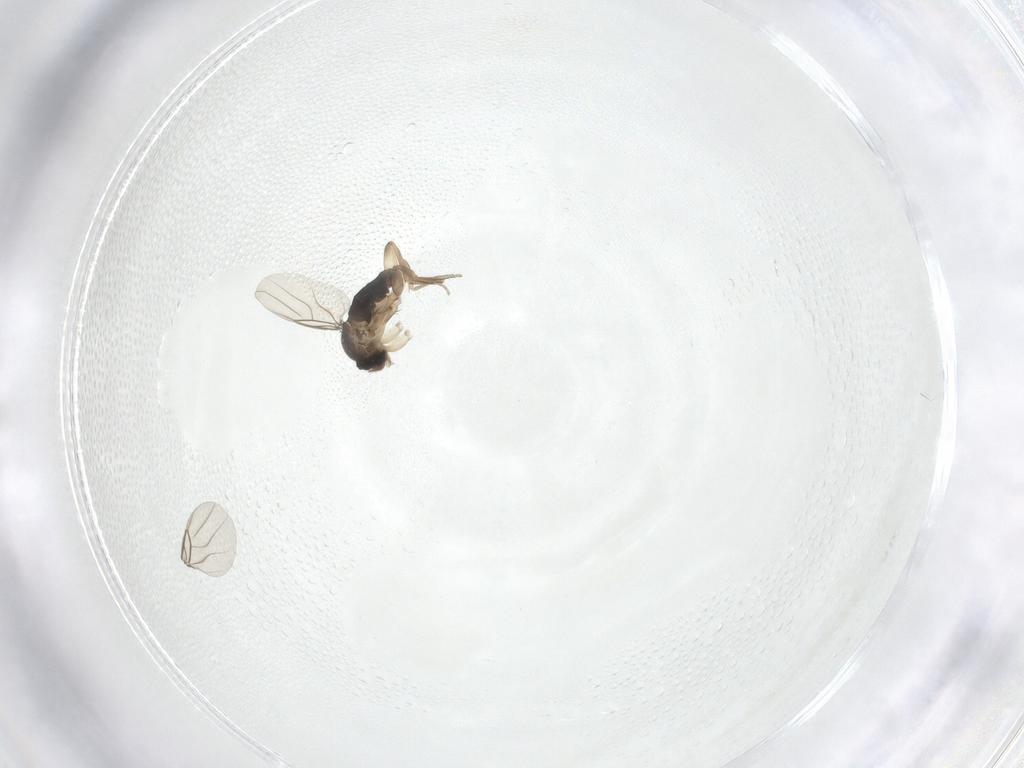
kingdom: Animalia
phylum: Arthropoda
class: Insecta
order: Diptera
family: Phoridae
